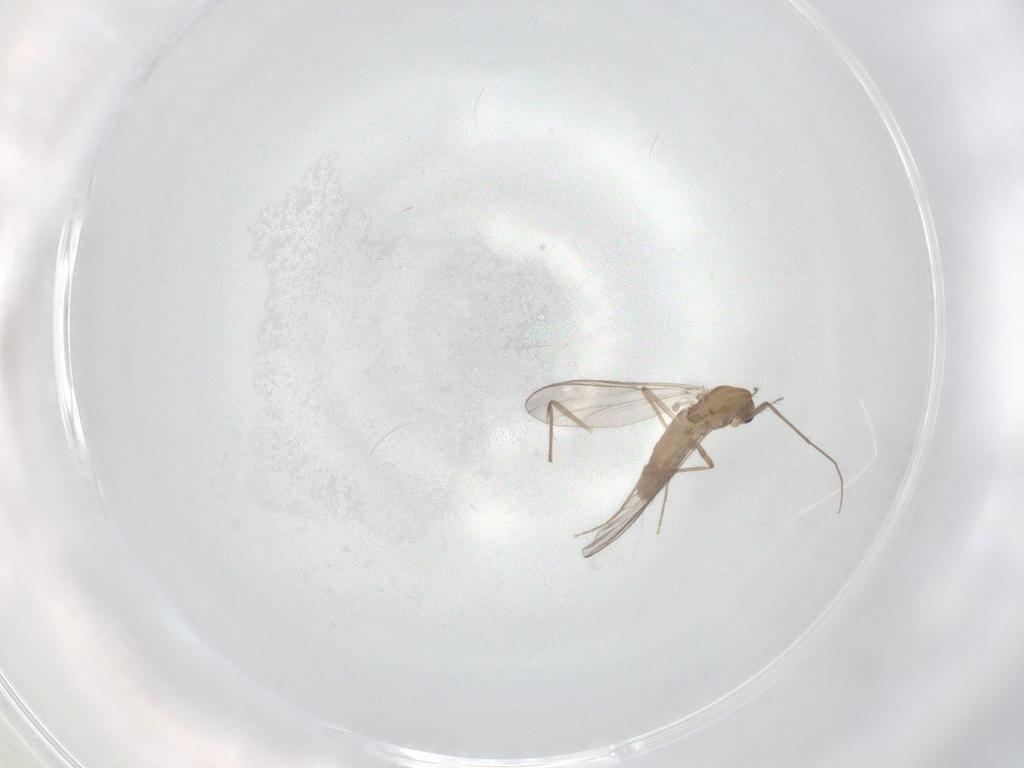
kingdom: Animalia
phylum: Arthropoda
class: Insecta
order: Diptera
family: Chironomidae
